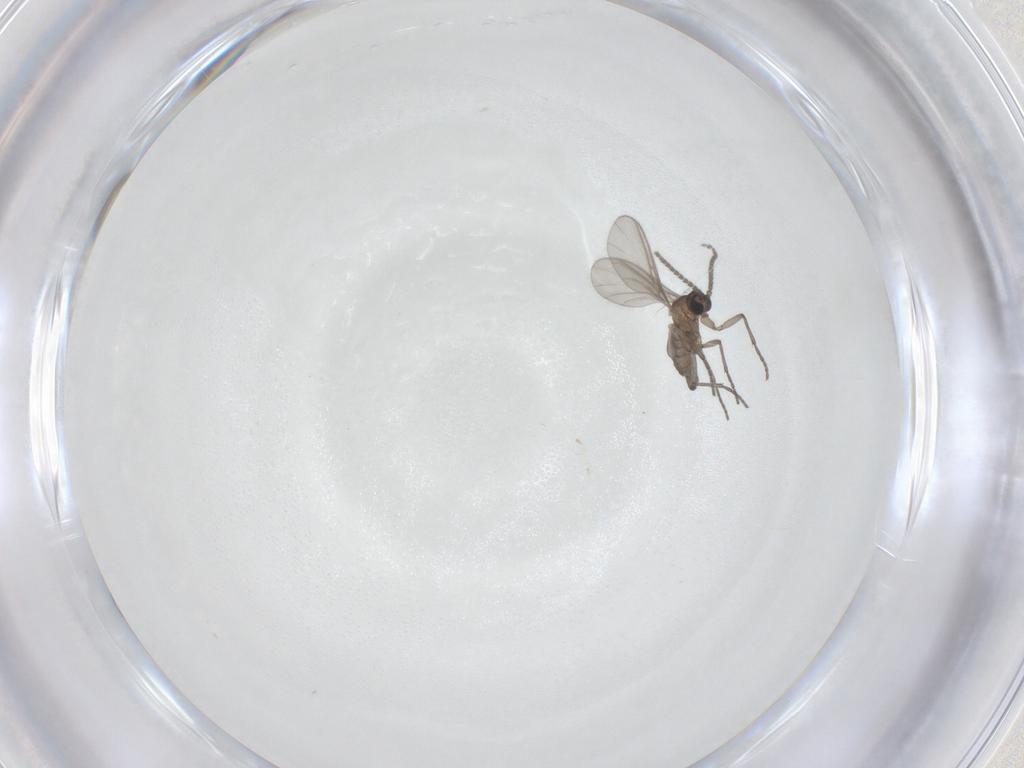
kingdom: Animalia
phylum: Arthropoda
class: Insecta
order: Diptera
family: Sciaridae
